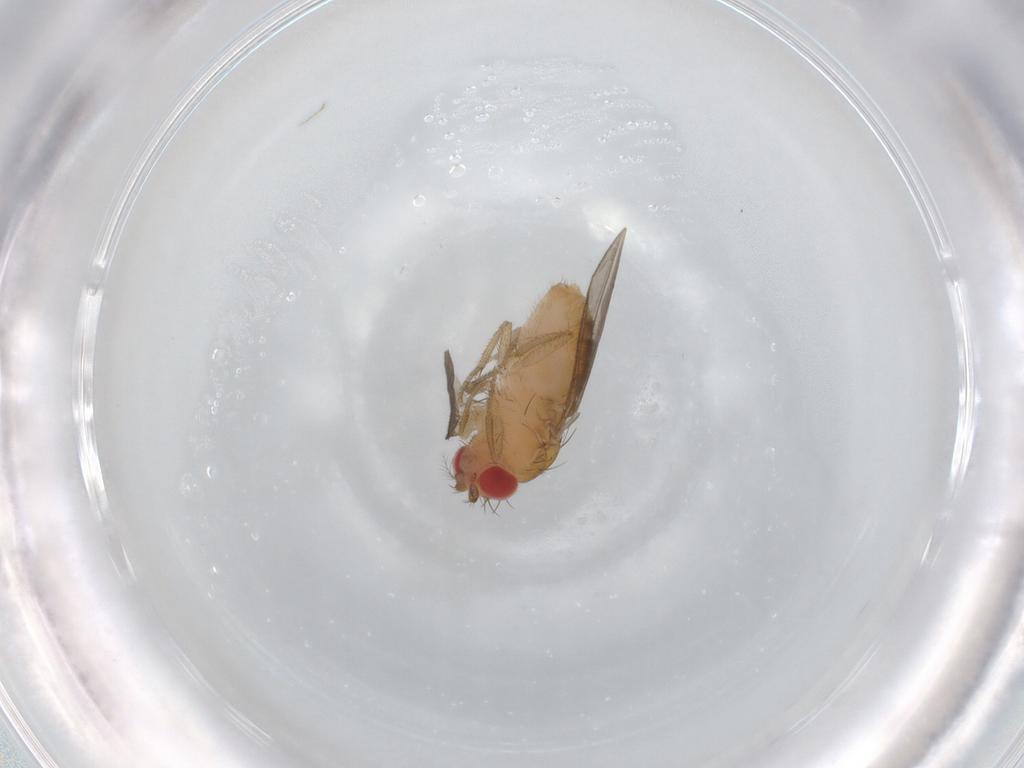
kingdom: Animalia
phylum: Arthropoda
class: Insecta
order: Diptera
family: Drosophilidae
